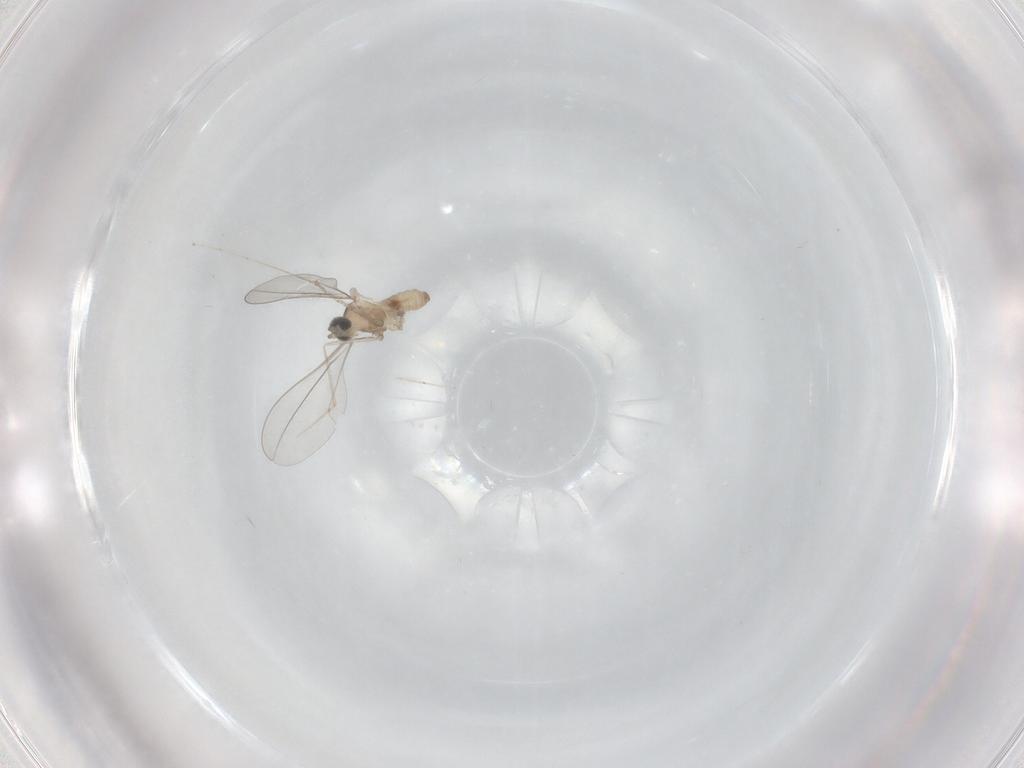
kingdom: Animalia
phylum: Arthropoda
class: Insecta
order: Diptera
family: Cecidomyiidae
